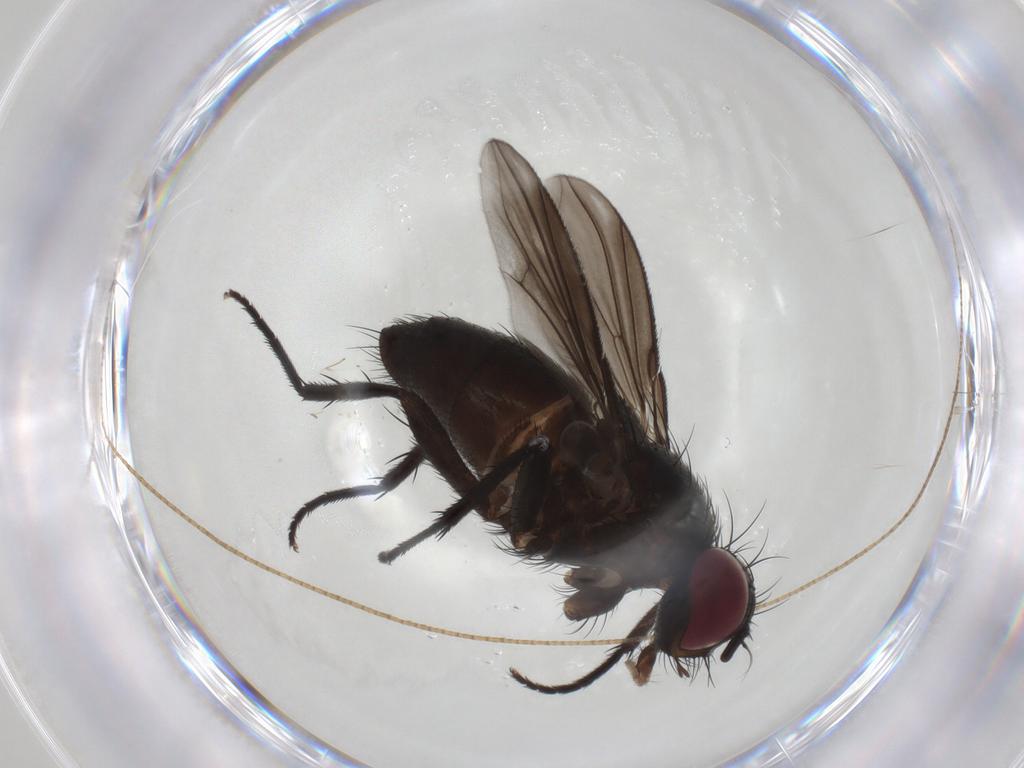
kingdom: Animalia
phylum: Arthropoda
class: Insecta
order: Diptera
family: Calliphoridae
